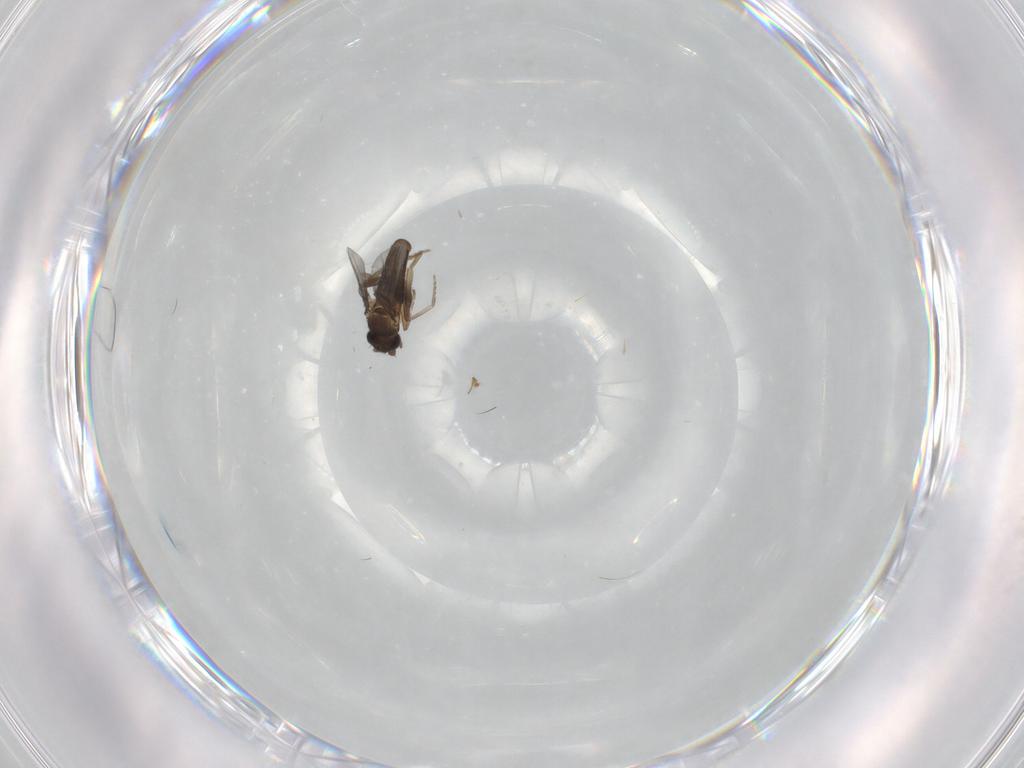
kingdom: Animalia
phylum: Arthropoda
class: Insecta
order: Diptera
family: Tabanidae
